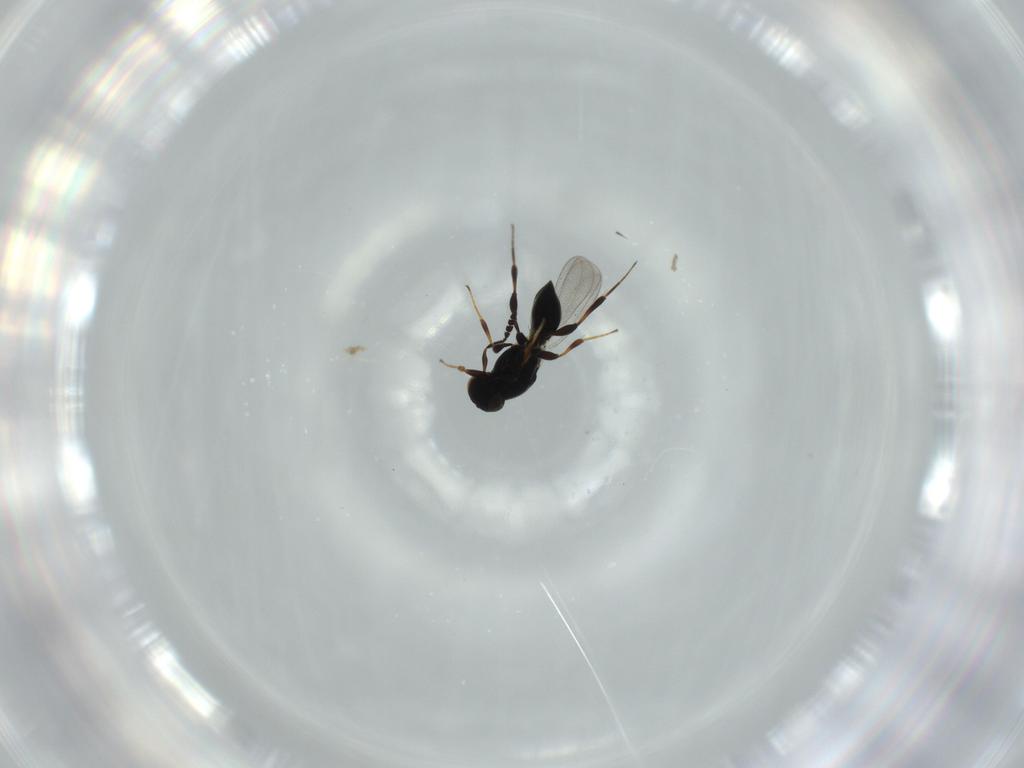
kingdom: Animalia
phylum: Arthropoda
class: Insecta
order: Hymenoptera
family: Platygastridae
